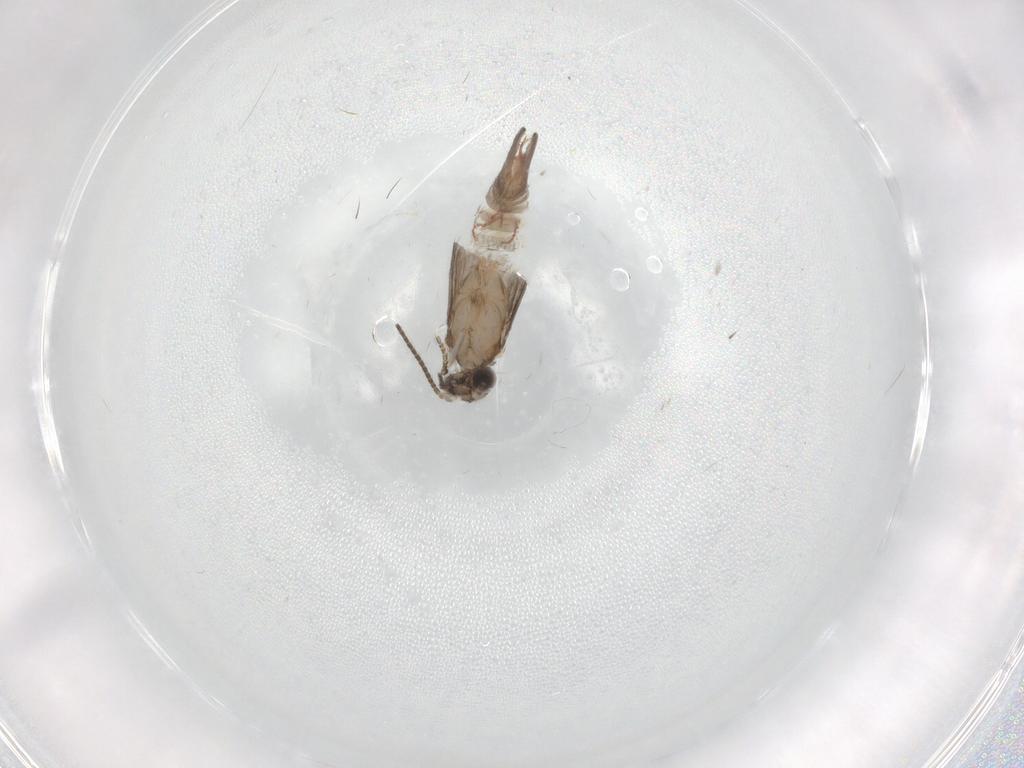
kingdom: Animalia
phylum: Arthropoda
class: Insecta
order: Trichoptera
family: Hydroptilidae
